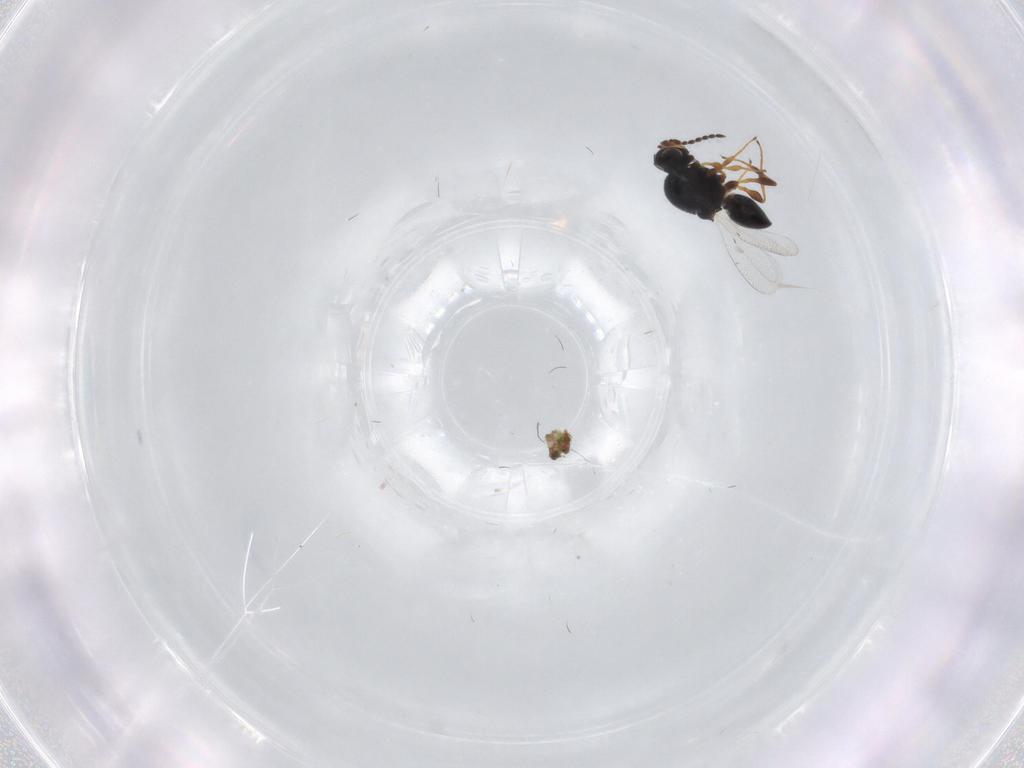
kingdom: Animalia
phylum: Arthropoda
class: Insecta
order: Hymenoptera
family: Platygastridae
